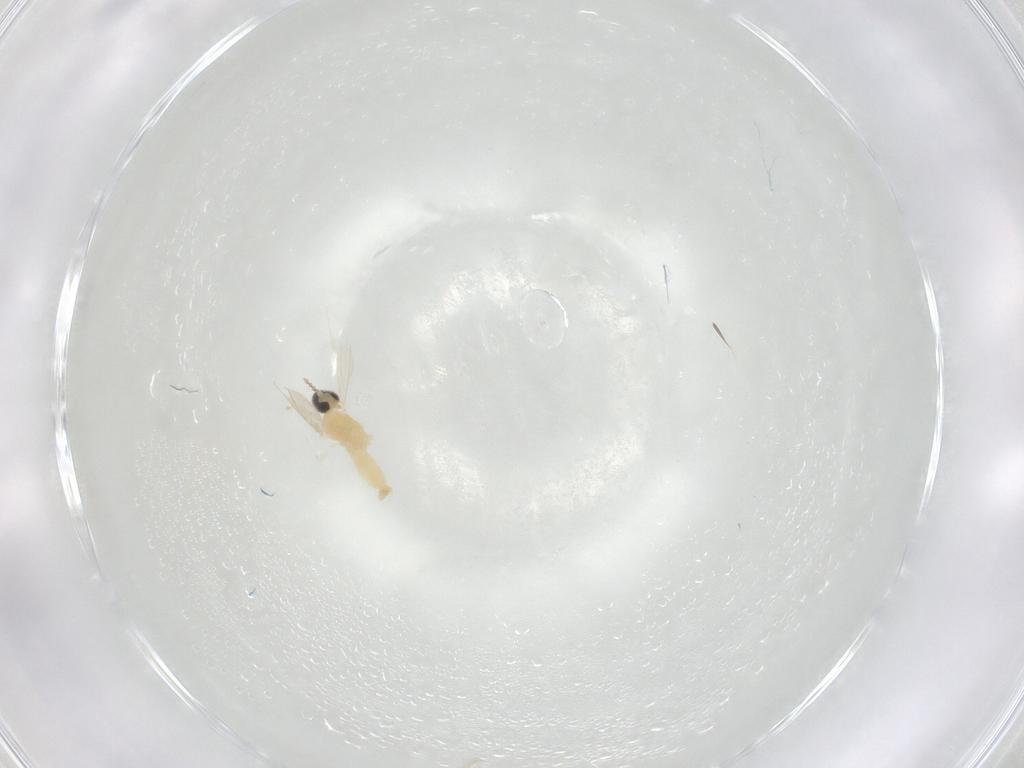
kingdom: Animalia
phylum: Arthropoda
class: Insecta
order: Diptera
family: Cecidomyiidae
